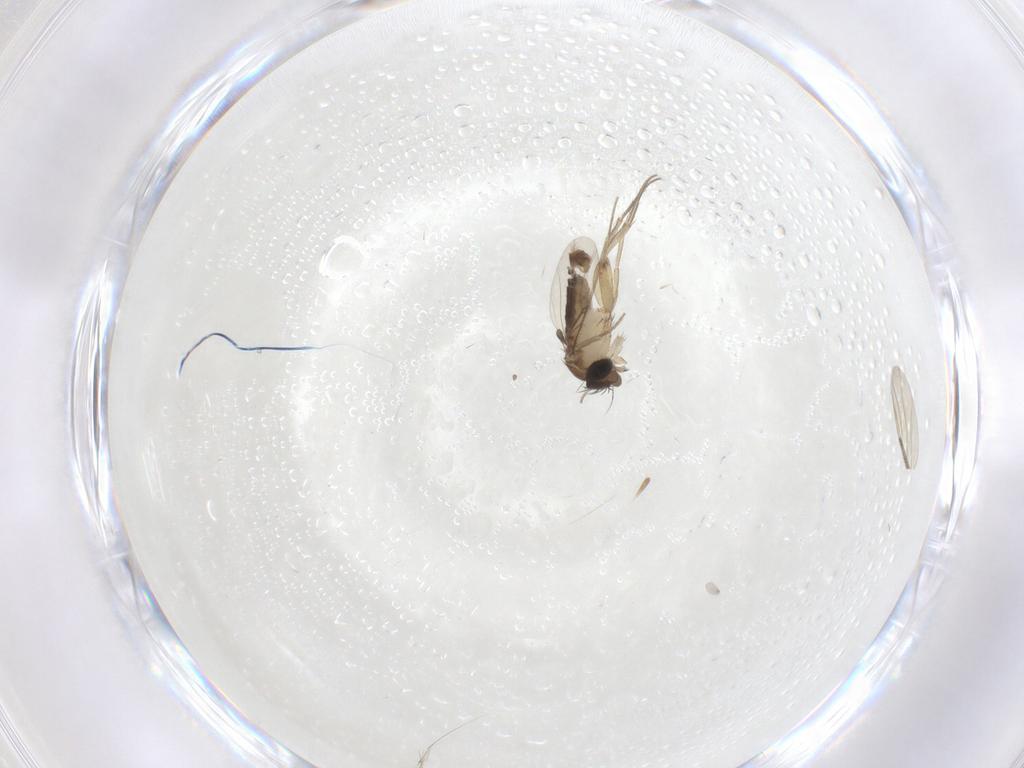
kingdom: Animalia
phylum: Arthropoda
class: Insecta
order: Diptera
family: Phoridae
